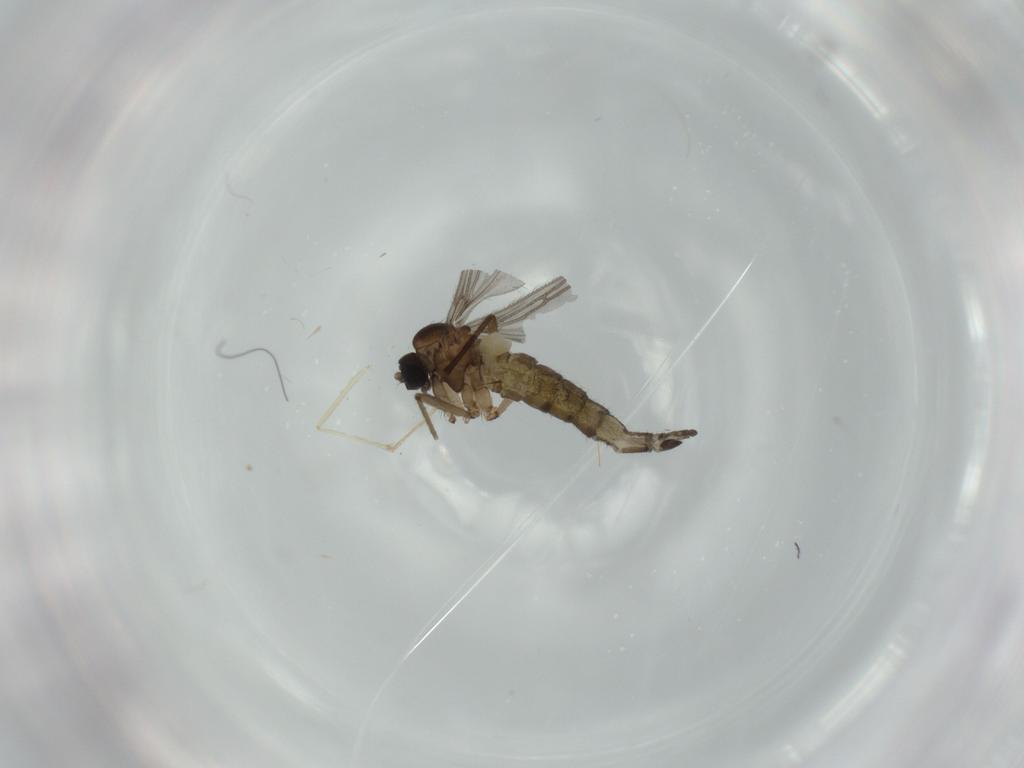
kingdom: Animalia
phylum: Arthropoda
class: Insecta
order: Diptera
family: Sciaridae
